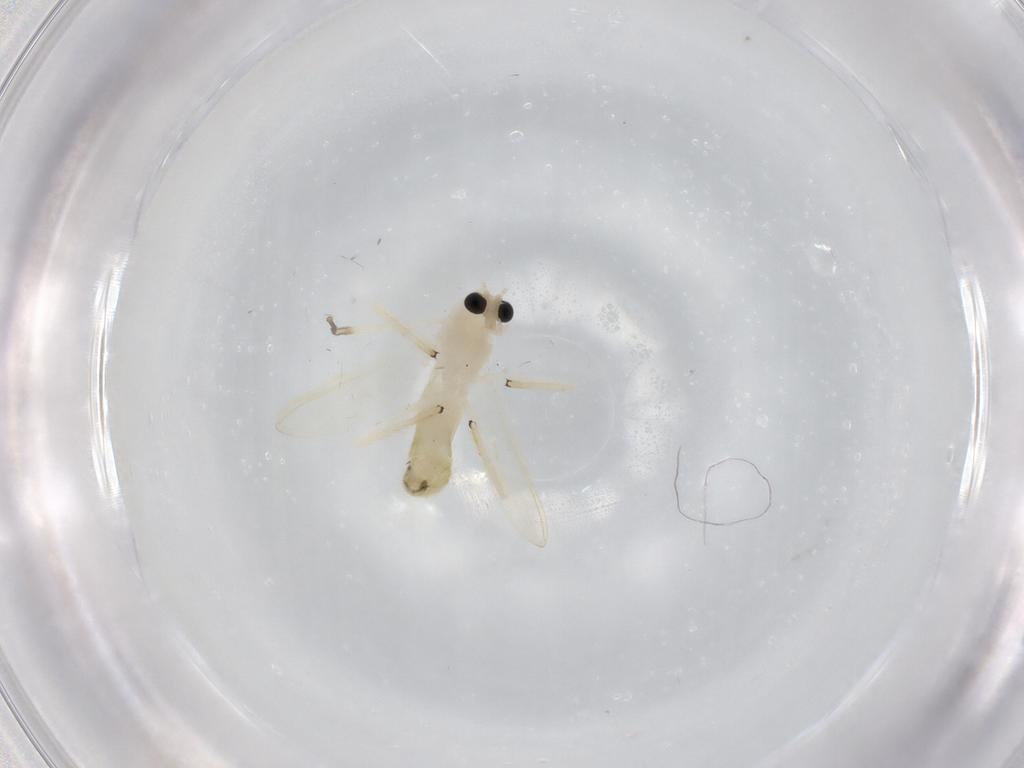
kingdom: Animalia
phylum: Arthropoda
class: Insecta
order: Diptera
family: Chironomidae
